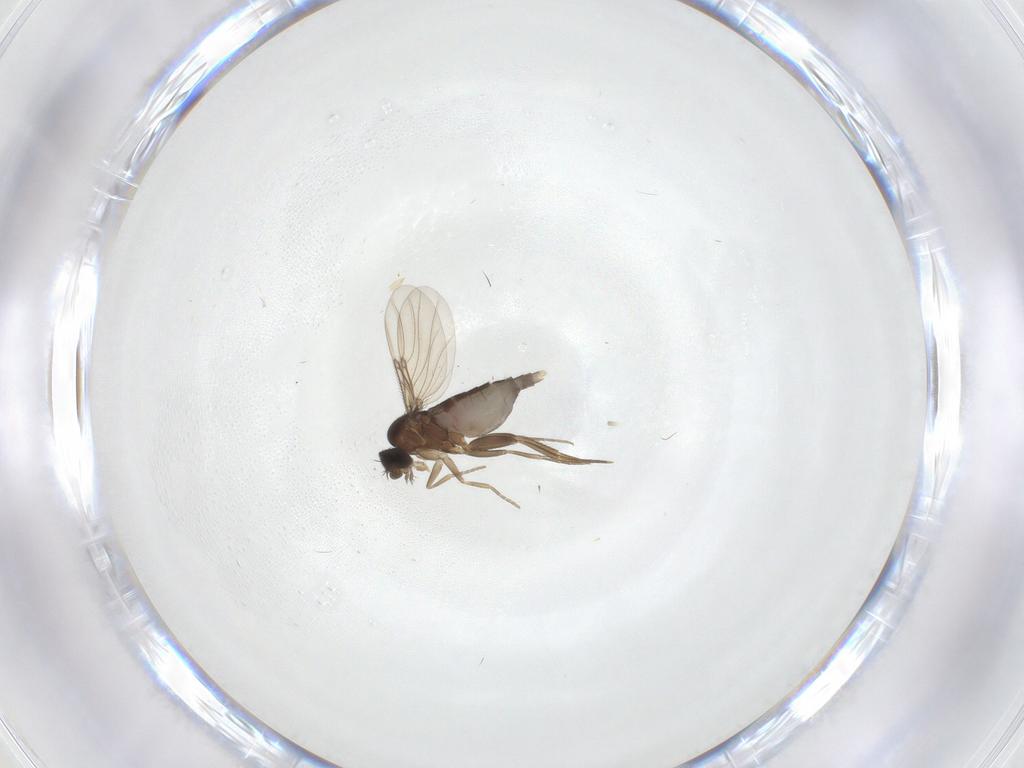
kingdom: Animalia
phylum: Arthropoda
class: Insecta
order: Diptera
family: Phoridae
